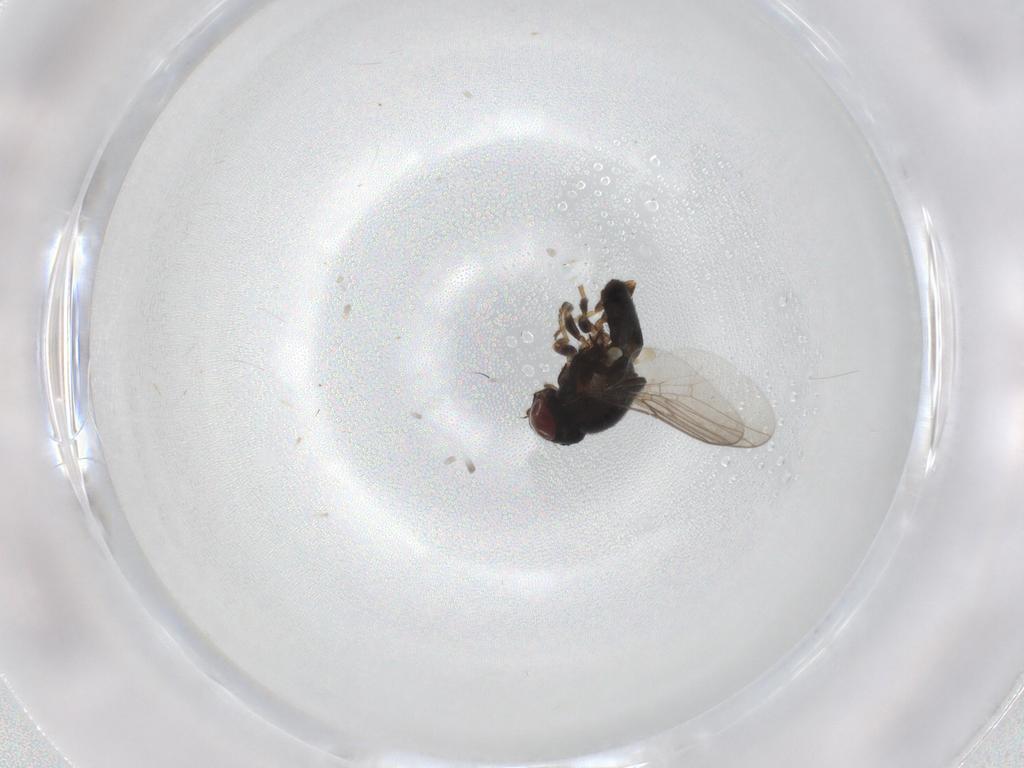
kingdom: Animalia
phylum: Arthropoda
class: Insecta
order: Diptera
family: Chloropidae
